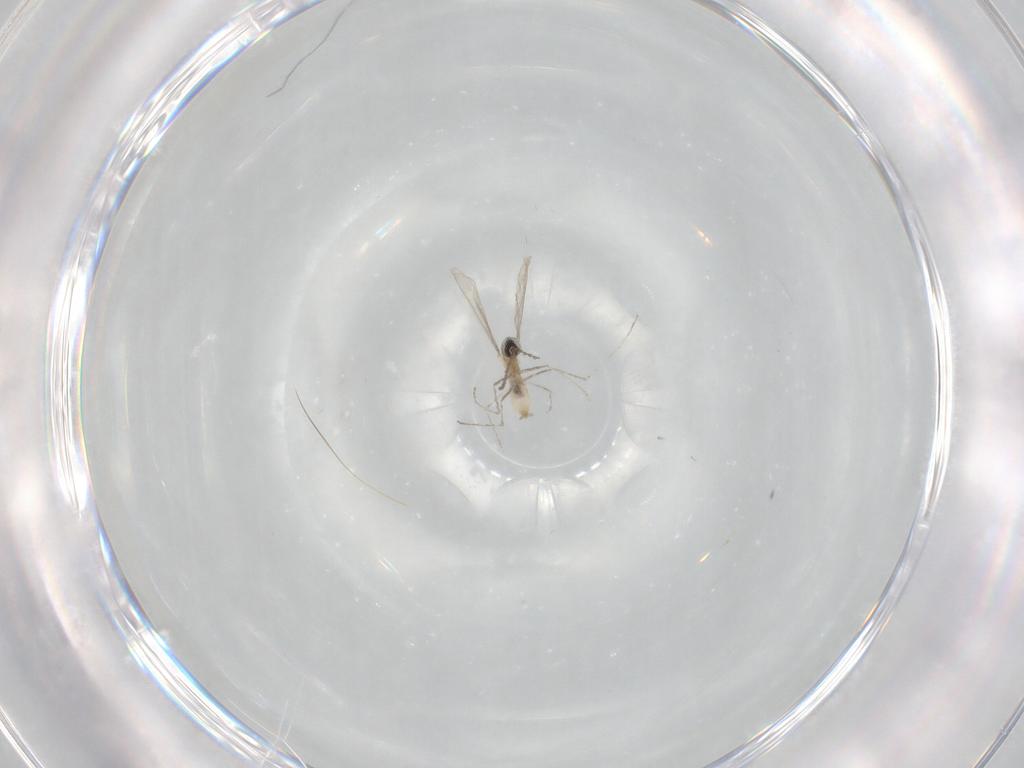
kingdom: Animalia
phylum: Arthropoda
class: Insecta
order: Diptera
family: Cecidomyiidae
